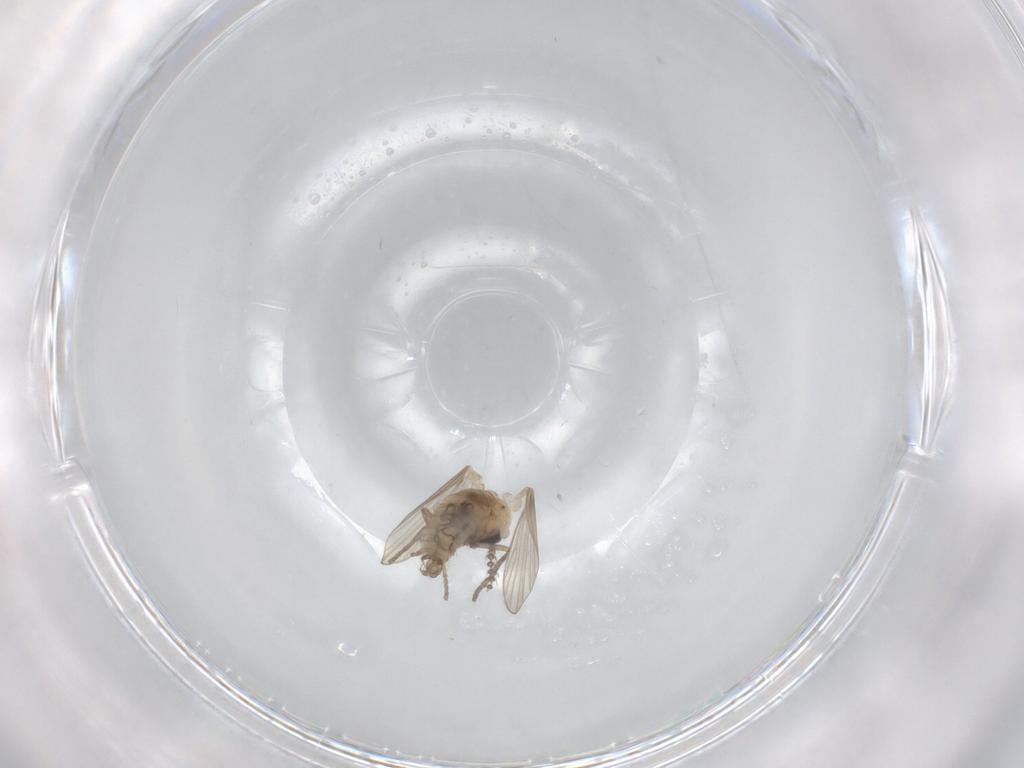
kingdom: Animalia
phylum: Arthropoda
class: Insecta
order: Diptera
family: Psychodidae
